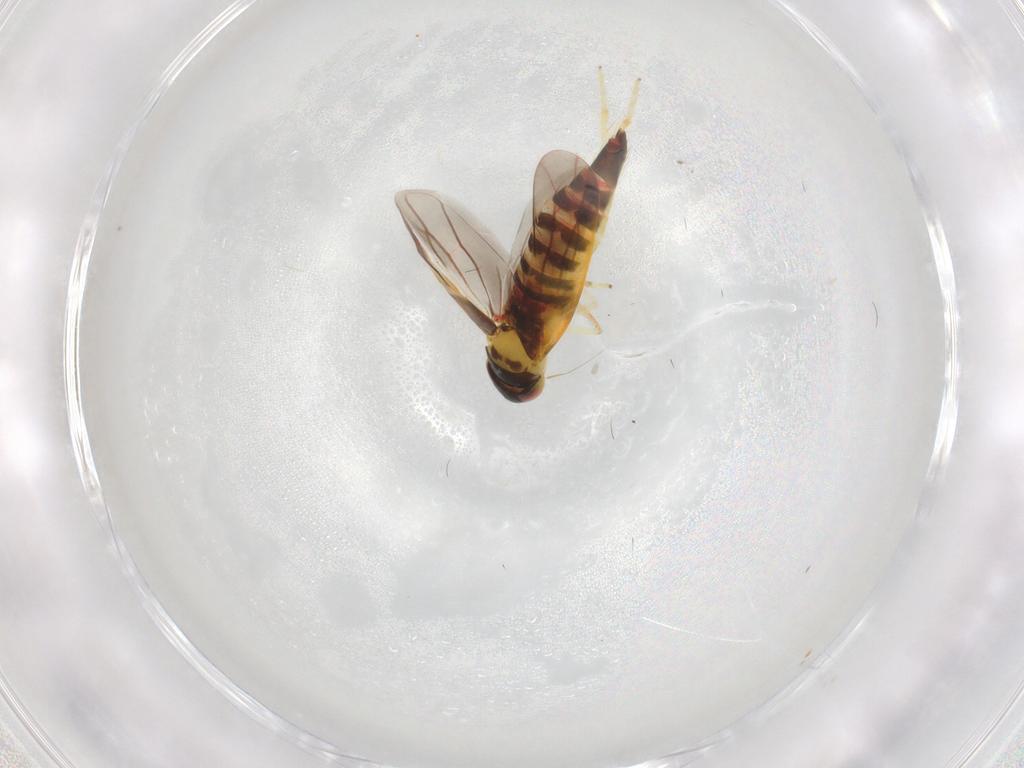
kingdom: Animalia
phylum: Arthropoda
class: Insecta
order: Hemiptera
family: Cicadellidae
